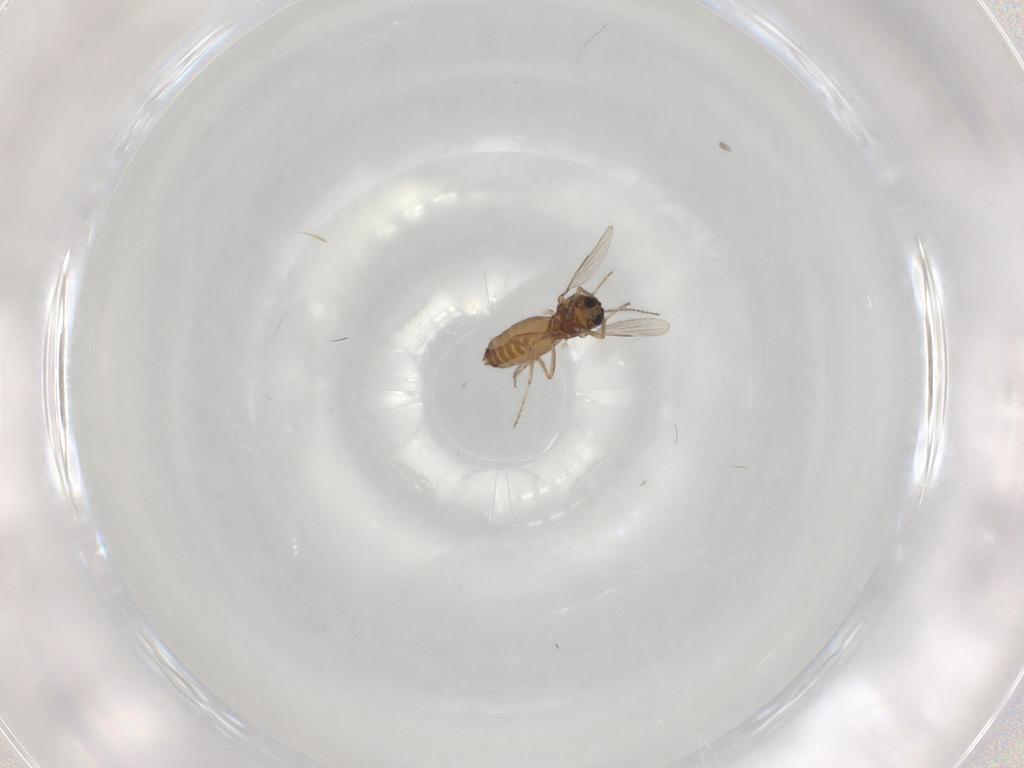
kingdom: Animalia
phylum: Arthropoda
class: Insecta
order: Diptera
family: Ceratopogonidae
